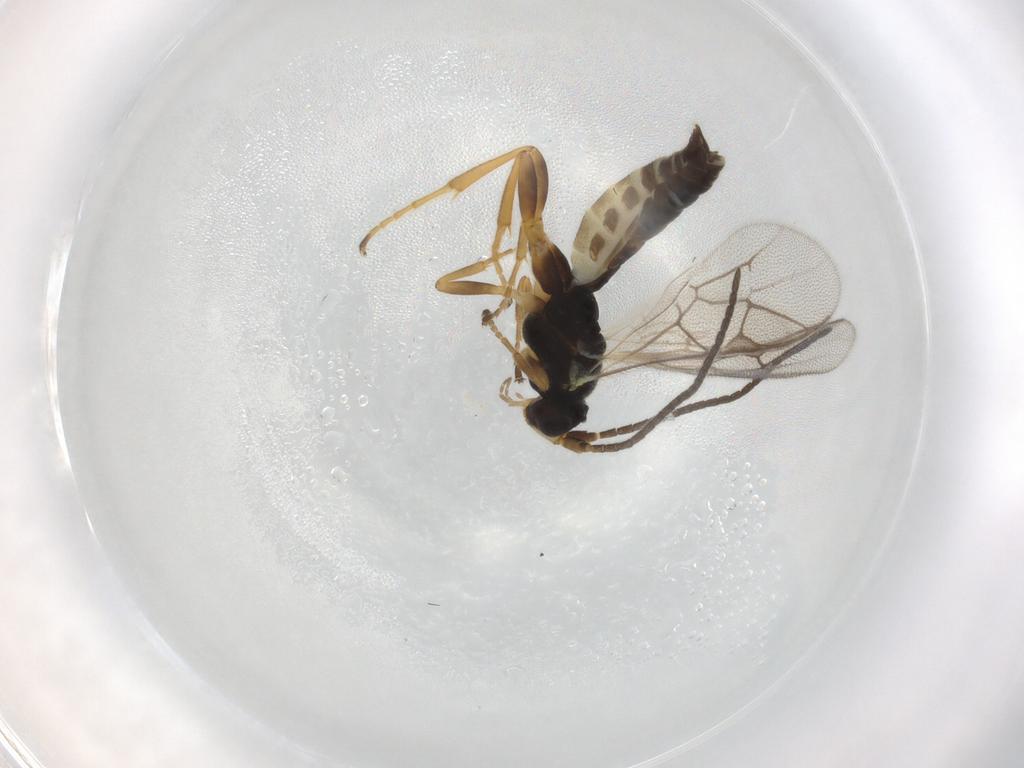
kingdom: Animalia
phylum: Arthropoda
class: Insecta
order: Hymenoptera
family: Ichneumonidae
